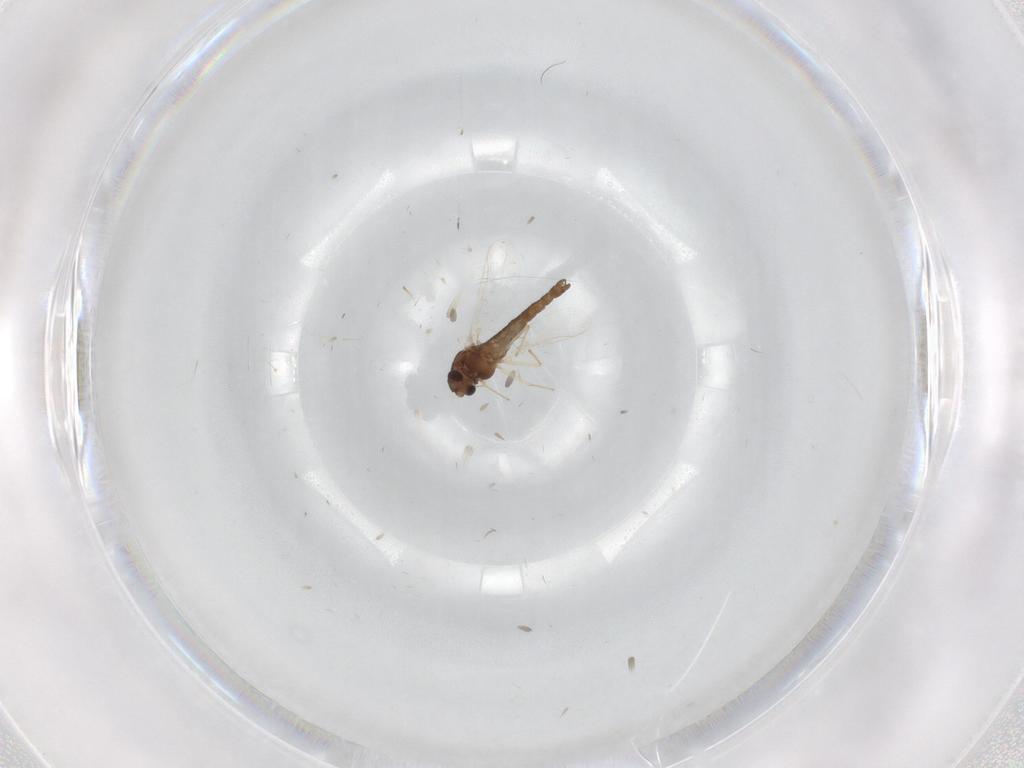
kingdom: Animalia
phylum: Arthropoda
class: Insecta
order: Diptera
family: Chironomidae
